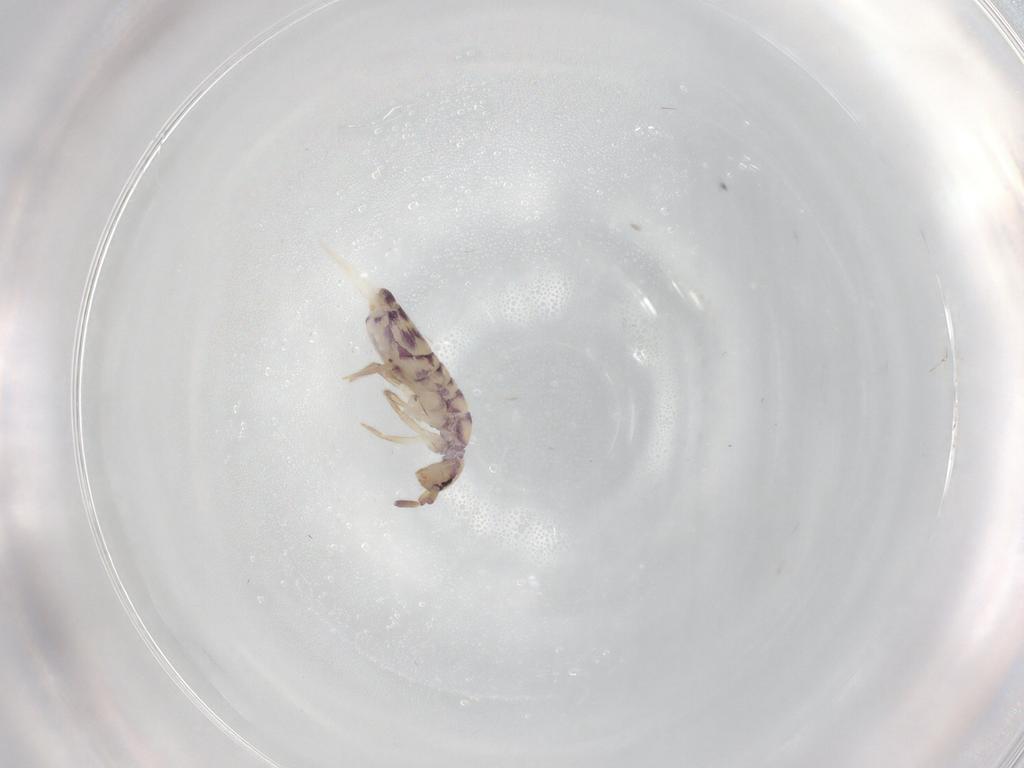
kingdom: Animalia
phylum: Arthropoda
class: Collembola
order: Entomobryomorpha
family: Entomobryidae
